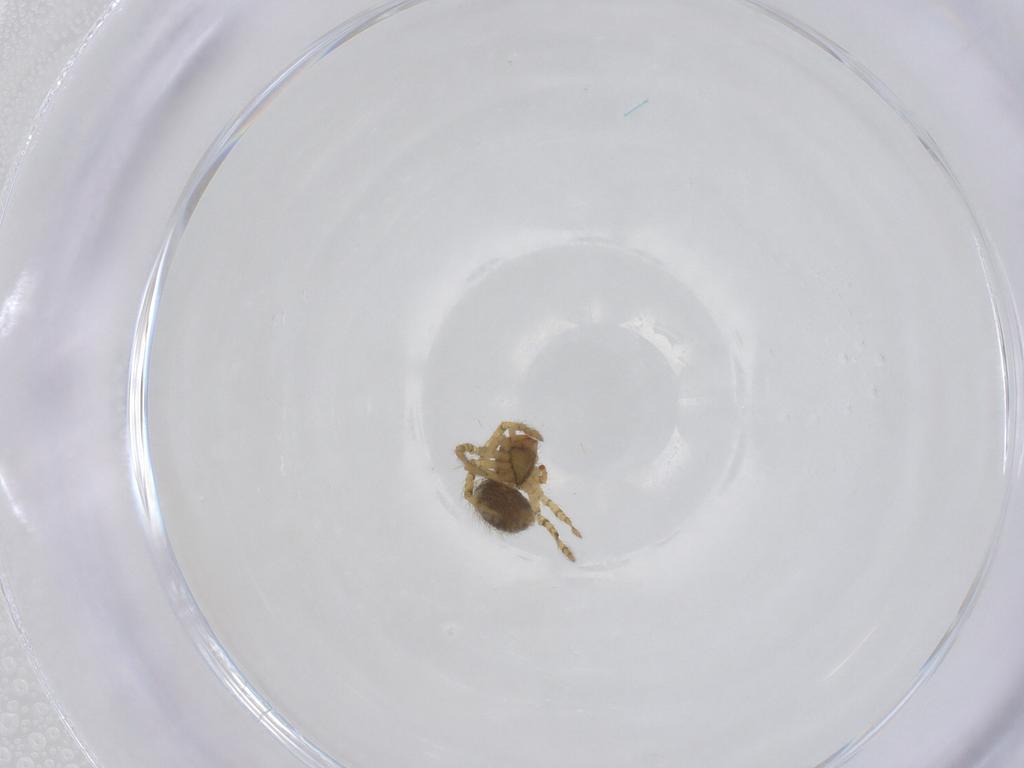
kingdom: Animalia
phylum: Arthropoda
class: Arachnida
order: Araneae
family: Theridiidae
